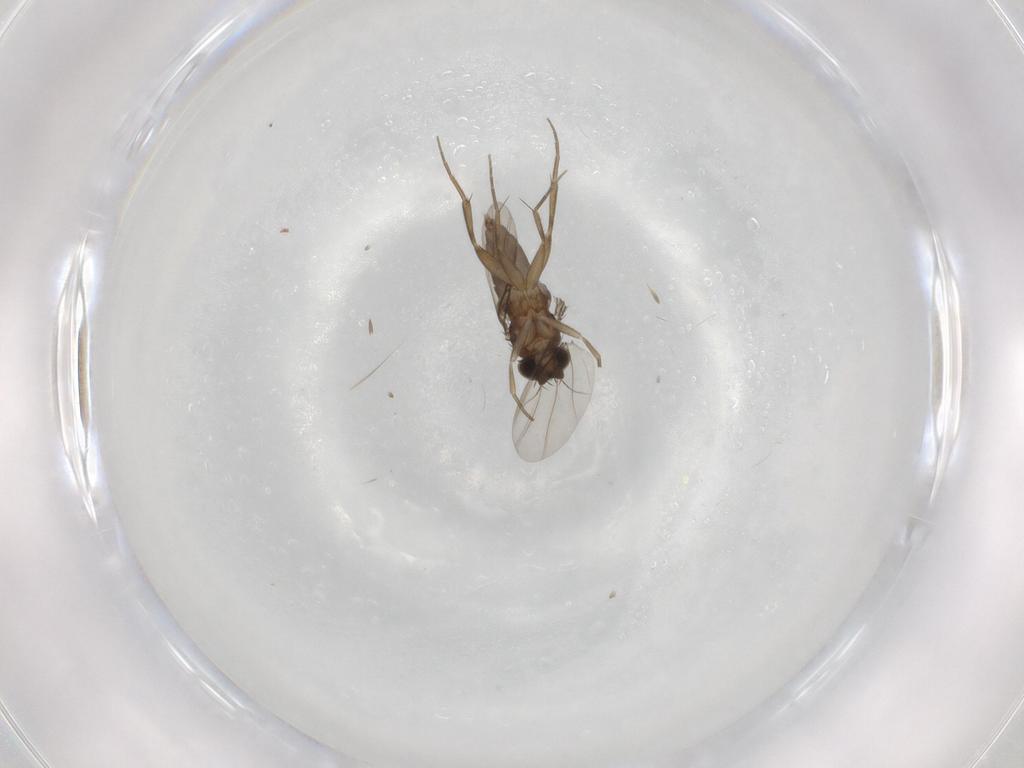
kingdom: Animalia
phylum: Arthropoda
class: Insecta
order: Diptera
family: Phoridae
